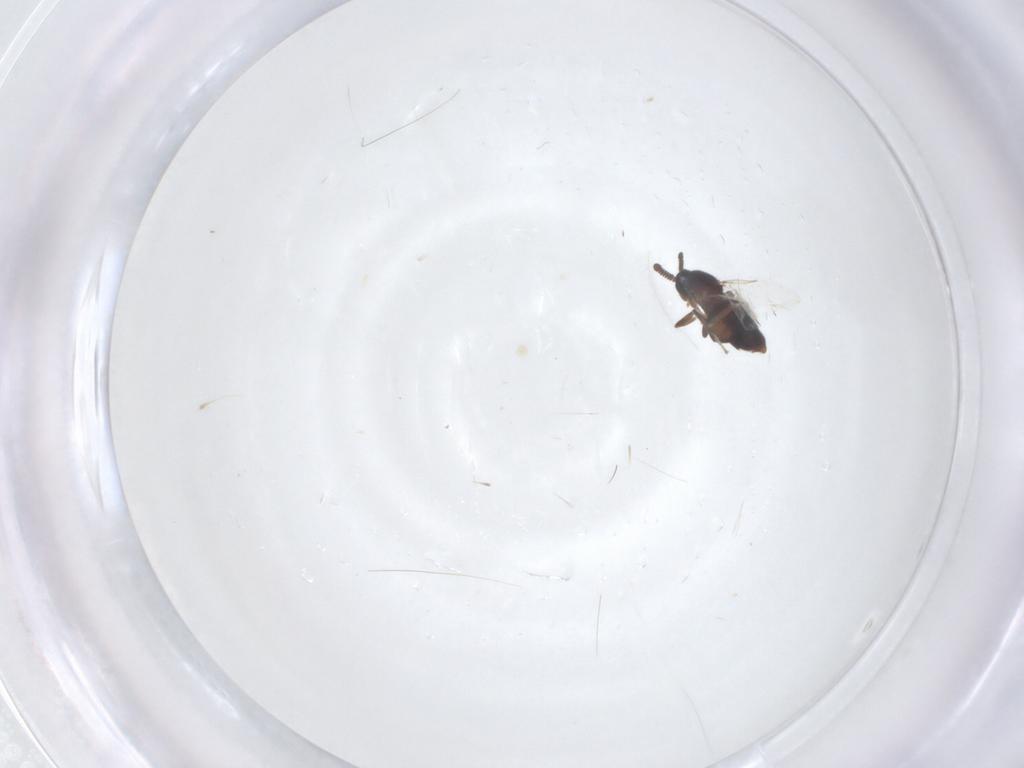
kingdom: Animalia
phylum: Arthropoda
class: Insecta
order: Diptera
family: Scatopsidae
